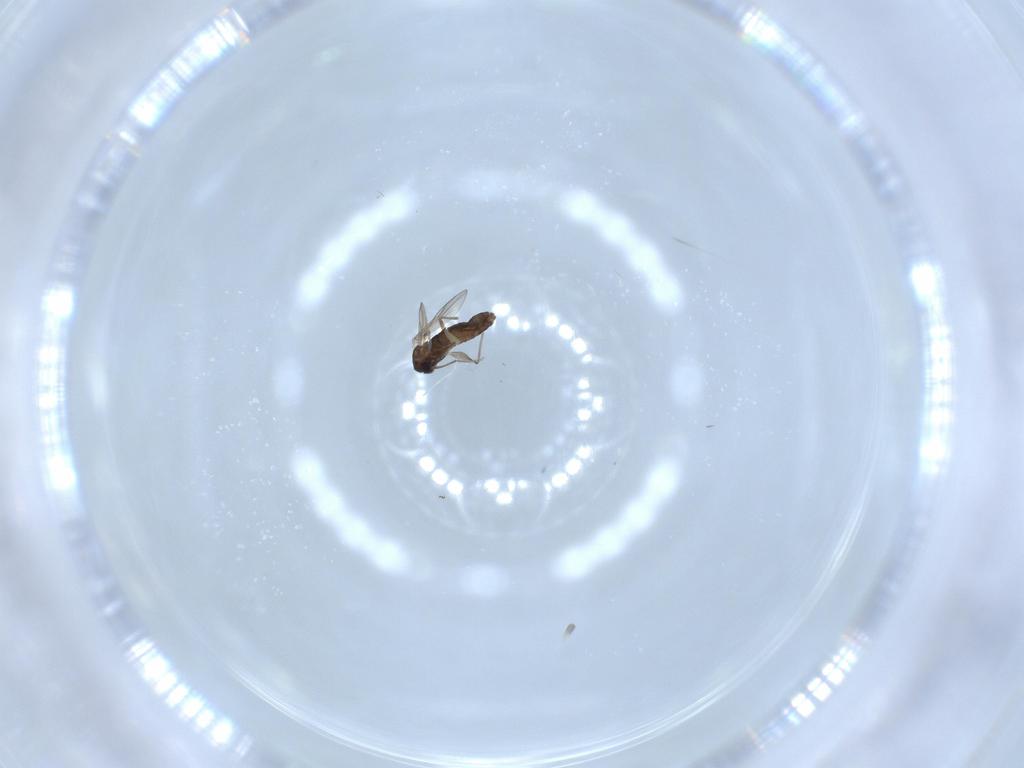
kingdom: Animalia
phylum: Arthropoda
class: Insecta
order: Diptera
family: Chironomidae
